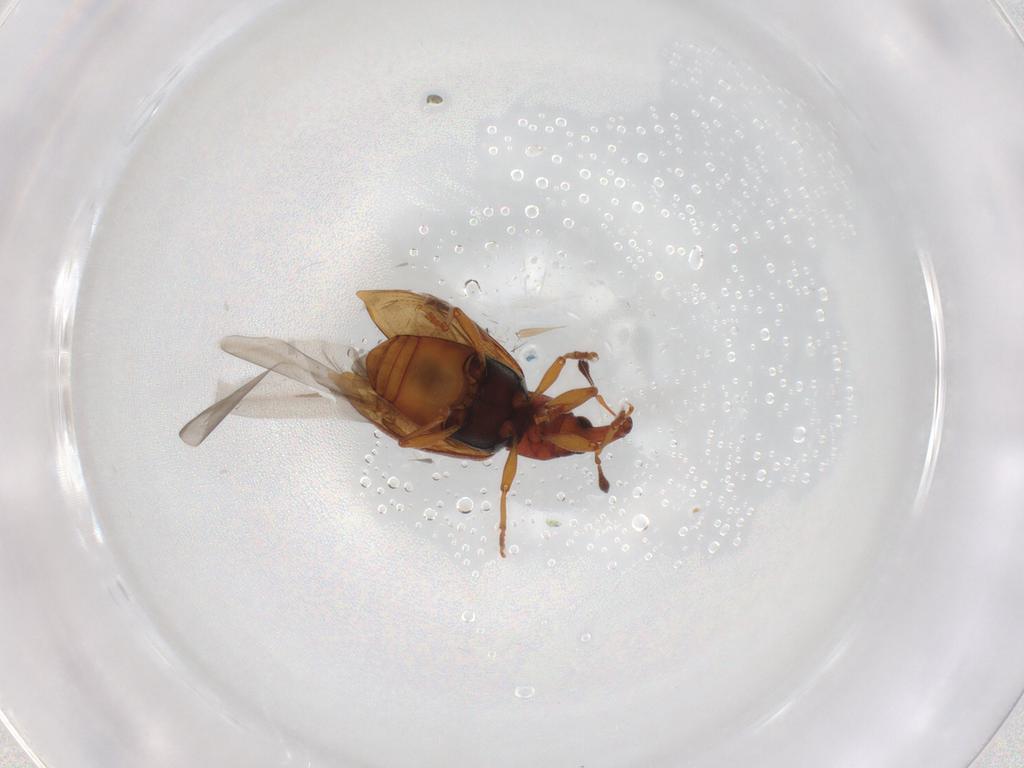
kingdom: Animalia
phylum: Arthropoda
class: Insecta
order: Coleoptera
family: Curculionidae
